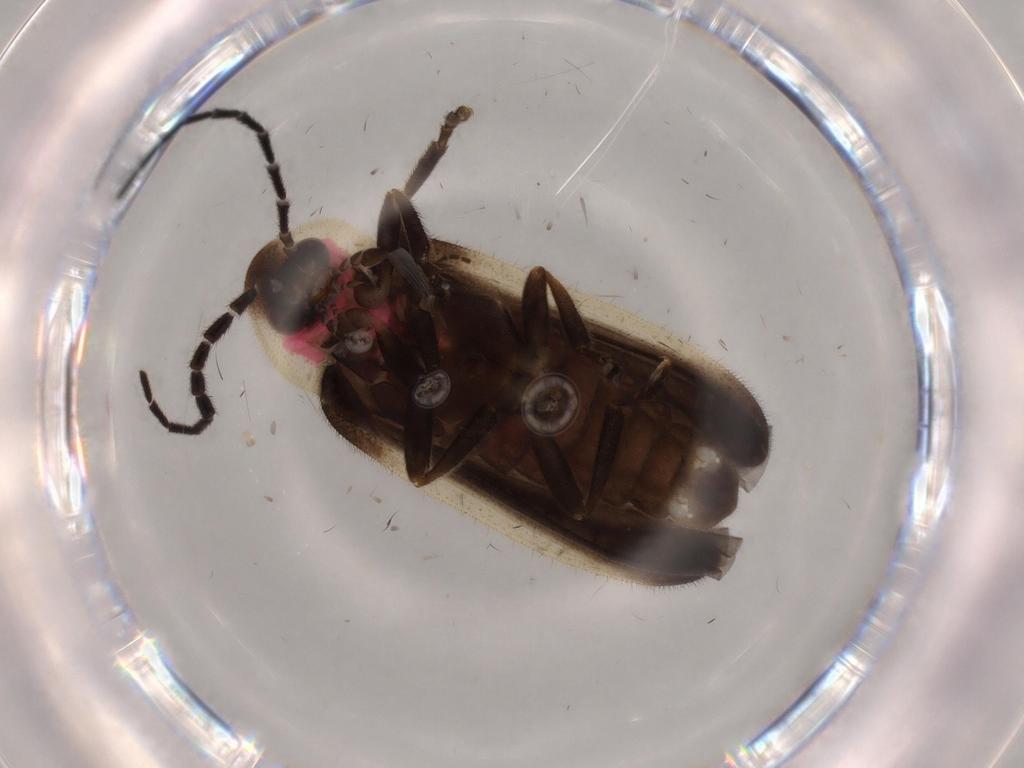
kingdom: Animalia
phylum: Arthropoda
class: Insecta
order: Coleoptera
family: Lampyridae
